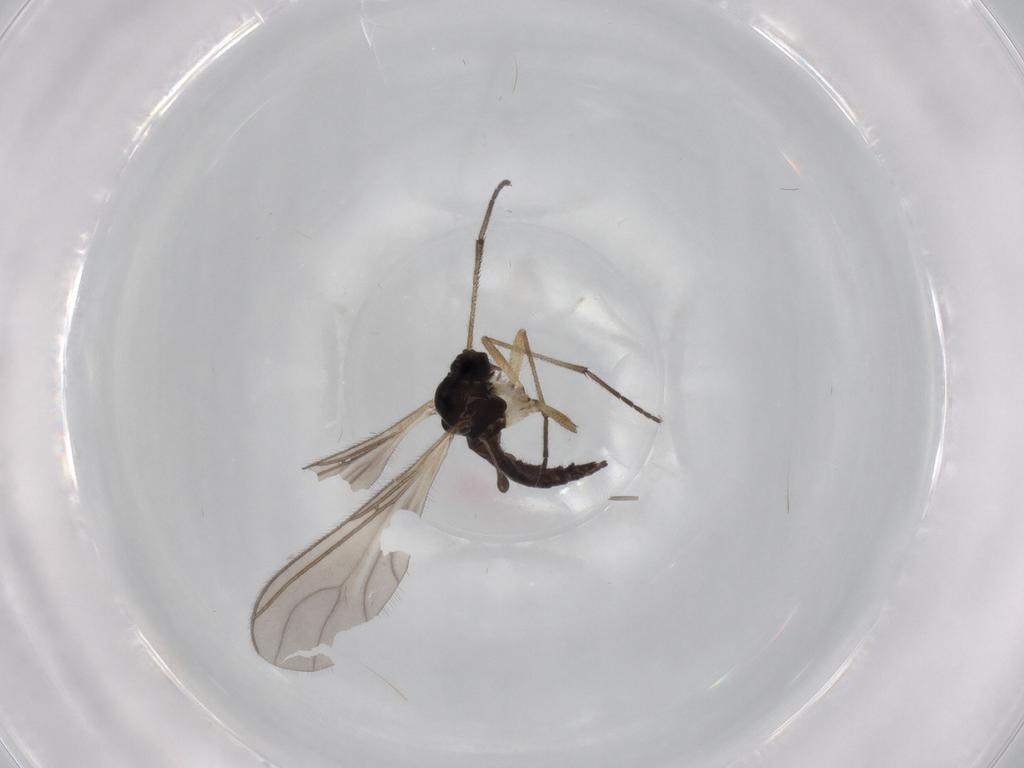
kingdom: Animalia
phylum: Arthropoda
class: Insecta
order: Diptera
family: Sciaridae
